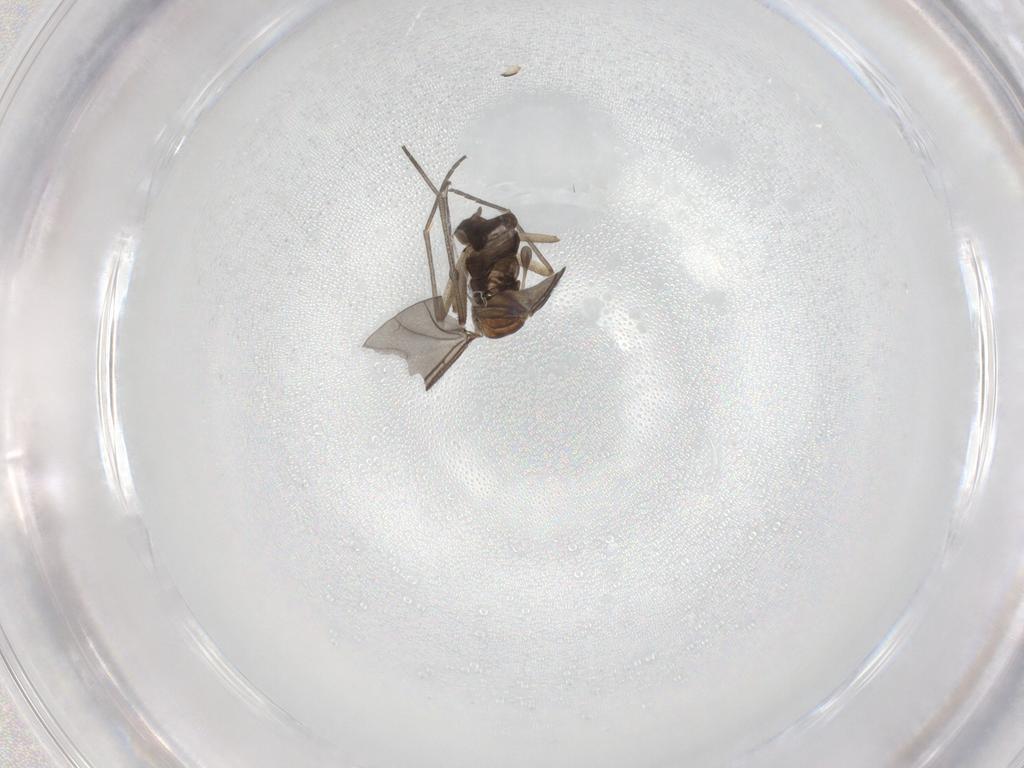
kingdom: Animalia
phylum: Arthropoda
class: Insecta
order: Diptera
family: Sciaridae
